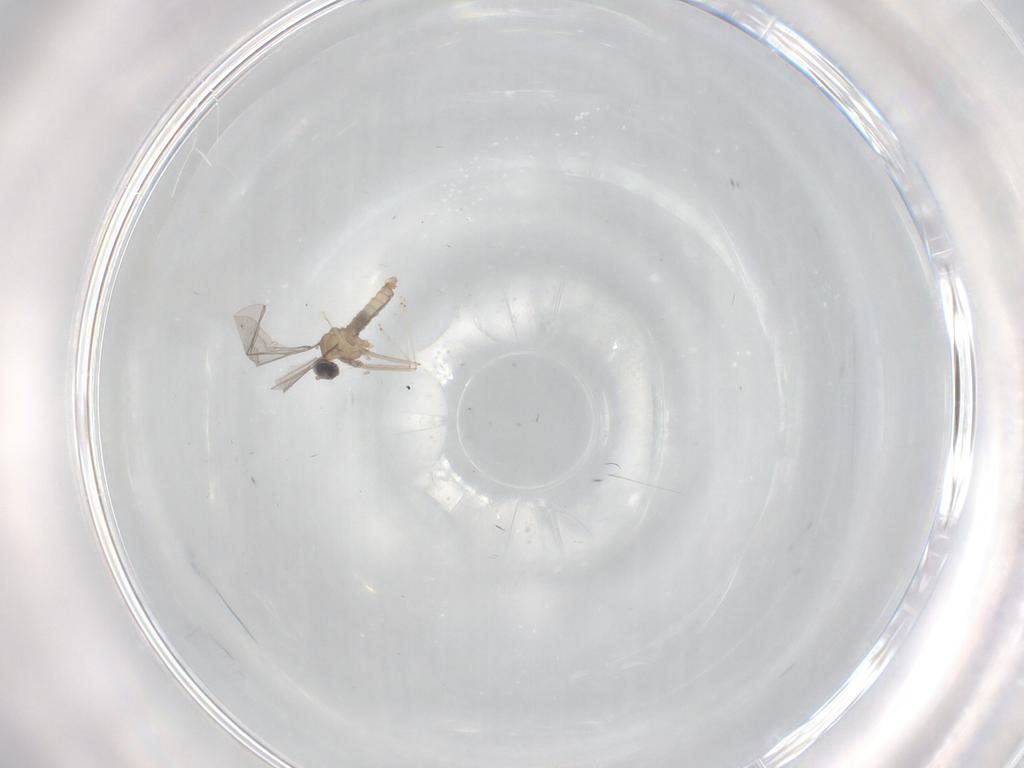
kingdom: Animalia
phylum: Arthropoda
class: Insecta
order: Diptera
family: Cecidomyiidae
